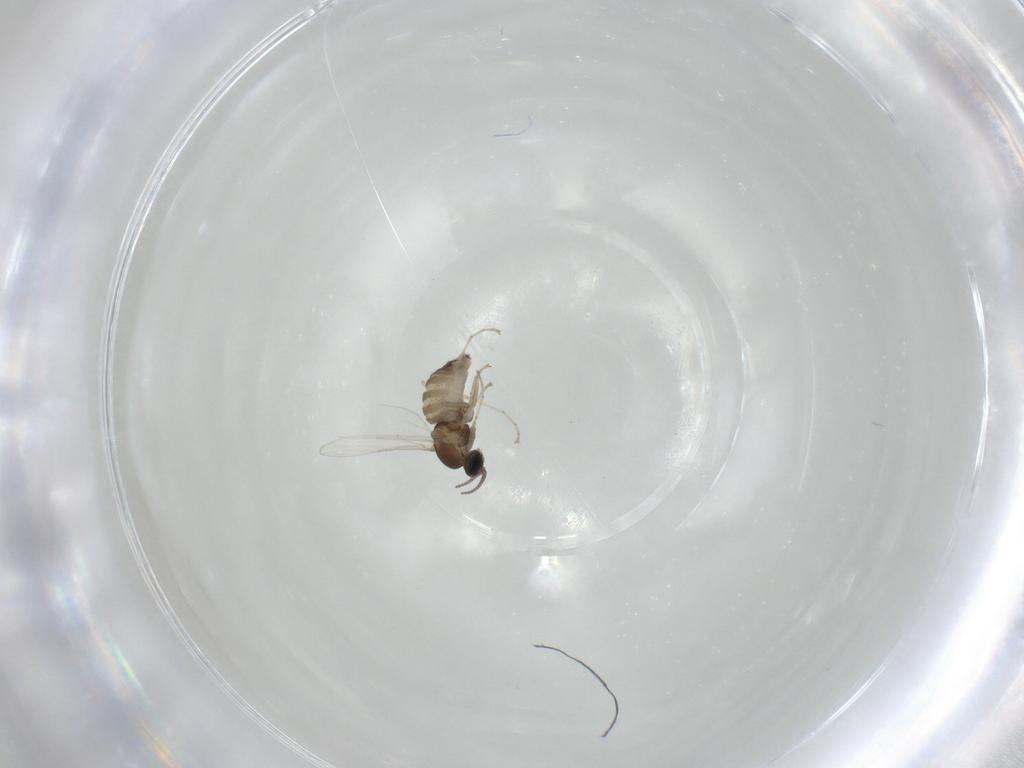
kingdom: Animalia
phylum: Arthropoda
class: Insecta
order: Diptera
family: Cecidomyiidae
